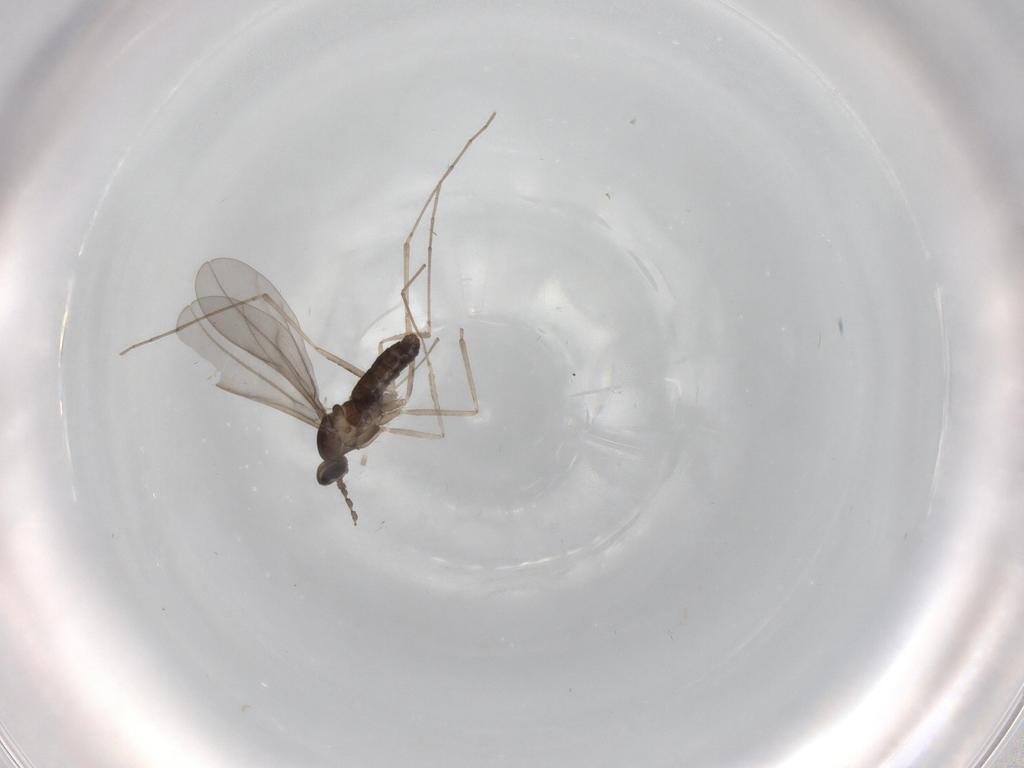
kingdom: Animalia
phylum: Arthropoda
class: Insecta
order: Diptera
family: Cecidomyiidae
